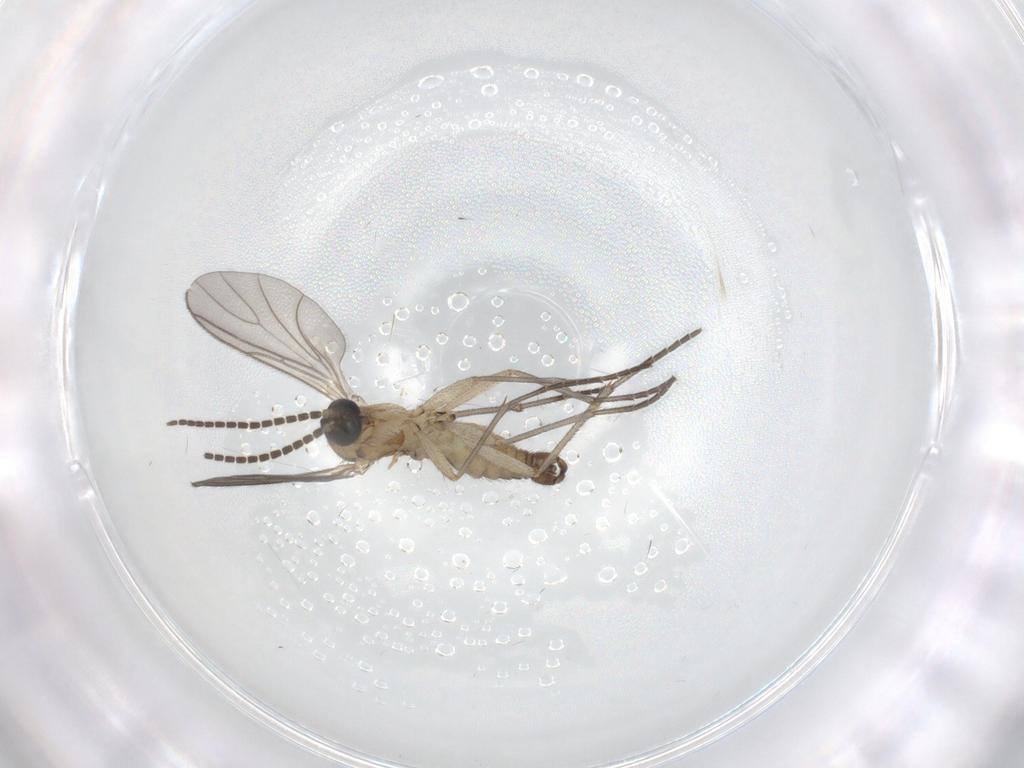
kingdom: Animalia
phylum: Arthropoda
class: Insecta
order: Diptera
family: Sciaridae
